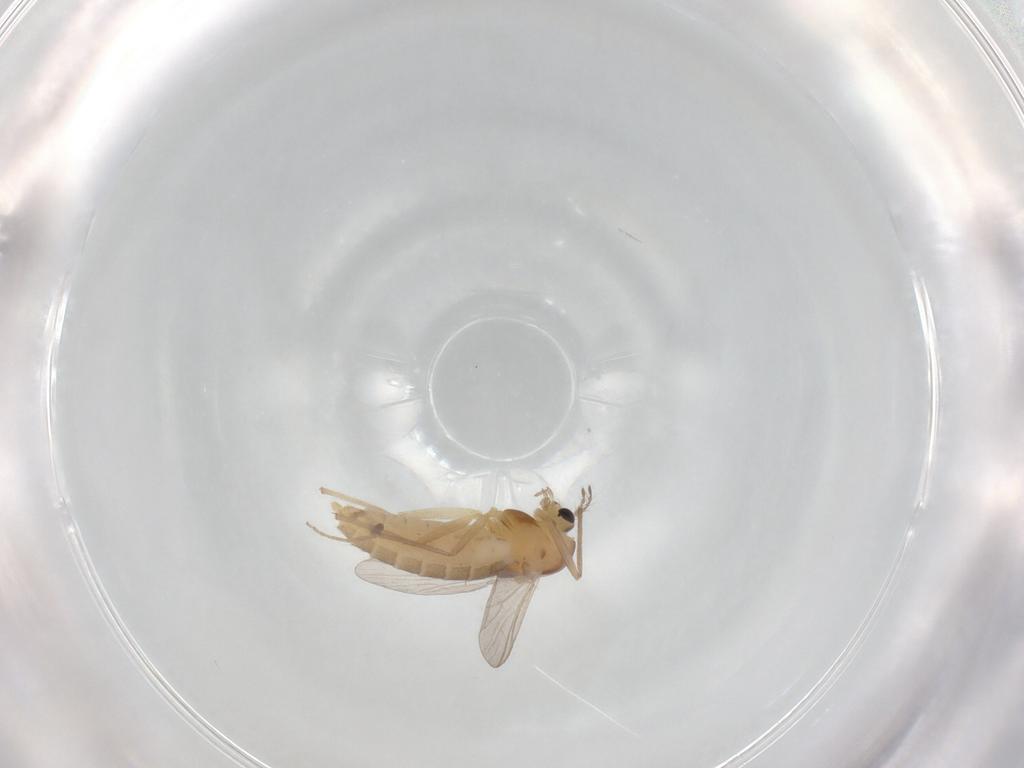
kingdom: Animalia
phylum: Arthropoda
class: Insecta
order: Diptera
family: Chironomidae
